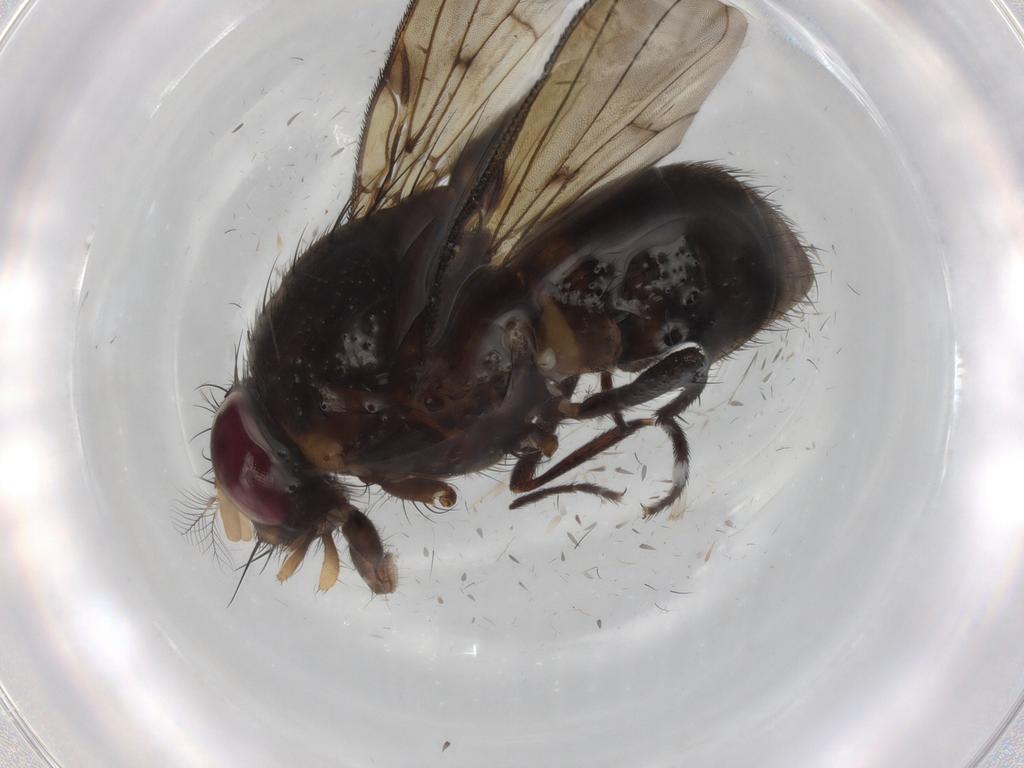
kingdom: Animalia
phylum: Arthropoda
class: Insecta
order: Diptera
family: Muscidae
